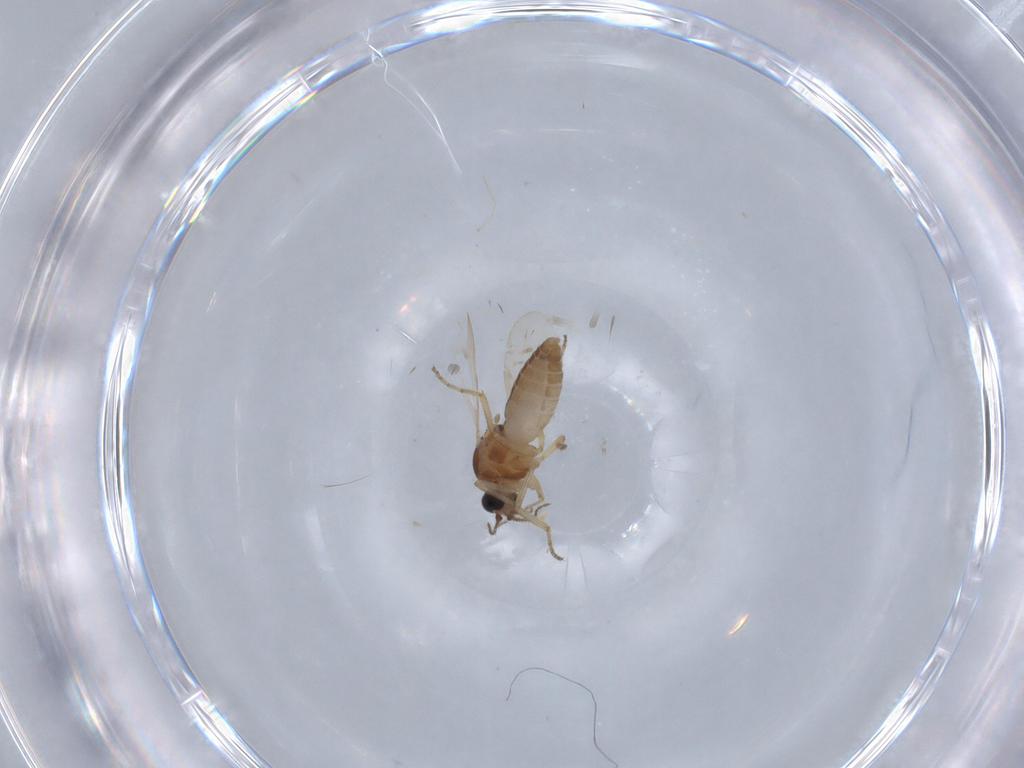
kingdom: Animalia
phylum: Arthropoda
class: Insecta
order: Diptera
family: Ceratopogonidae
